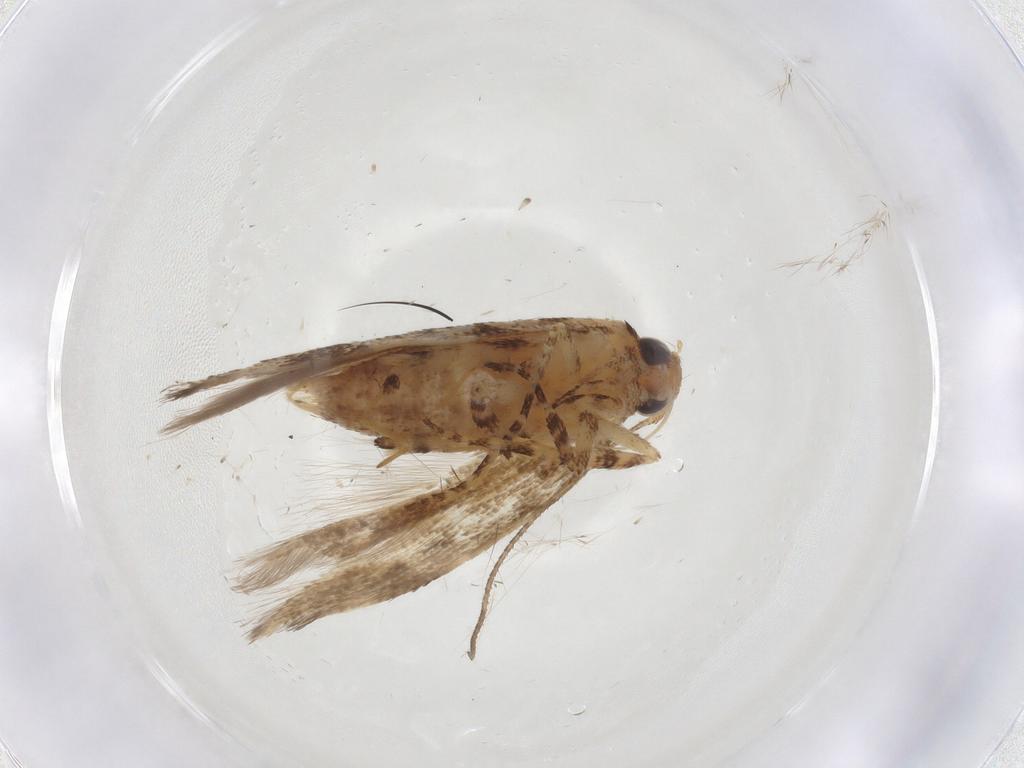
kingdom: Animalia
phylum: Arthropoda
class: Insecta
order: Lepidoptera
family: Gelechiidae
